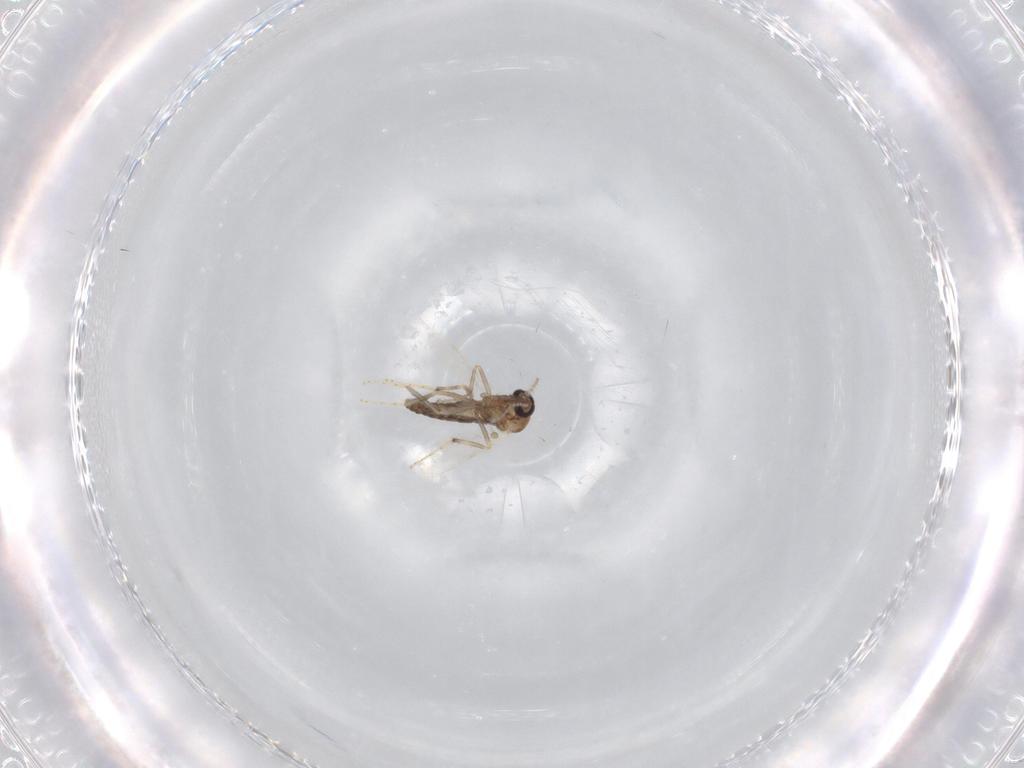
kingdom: Animalia
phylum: Arthropoda
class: Insecta
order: Diptera
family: Ceratopogonidae
